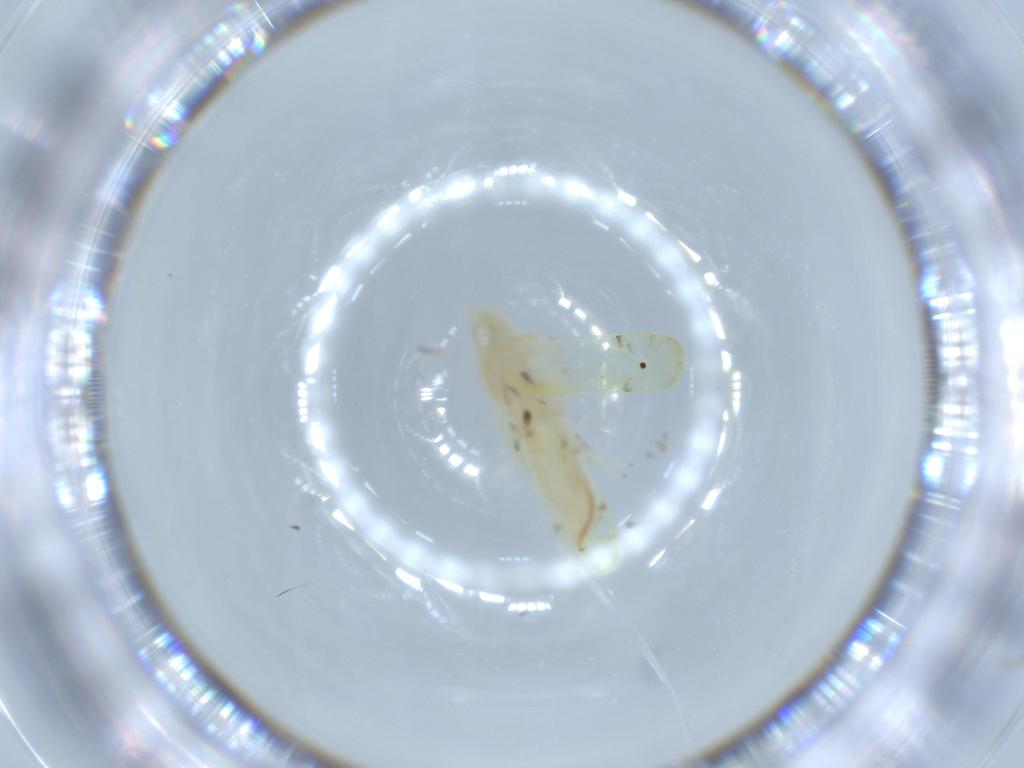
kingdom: Animalia
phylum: Arthropoda
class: Insecta
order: Hemiptera
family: Cicadellidae
